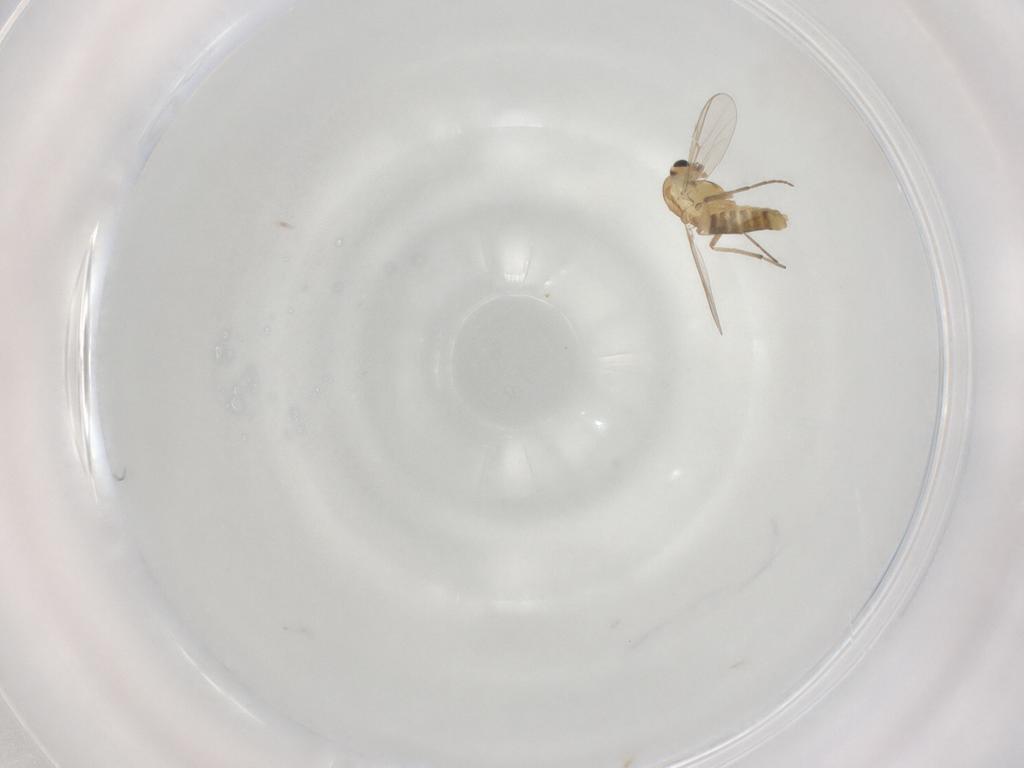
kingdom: Animalia
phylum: Arthropoda
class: Insecta
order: Diptera
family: Chironomidae
